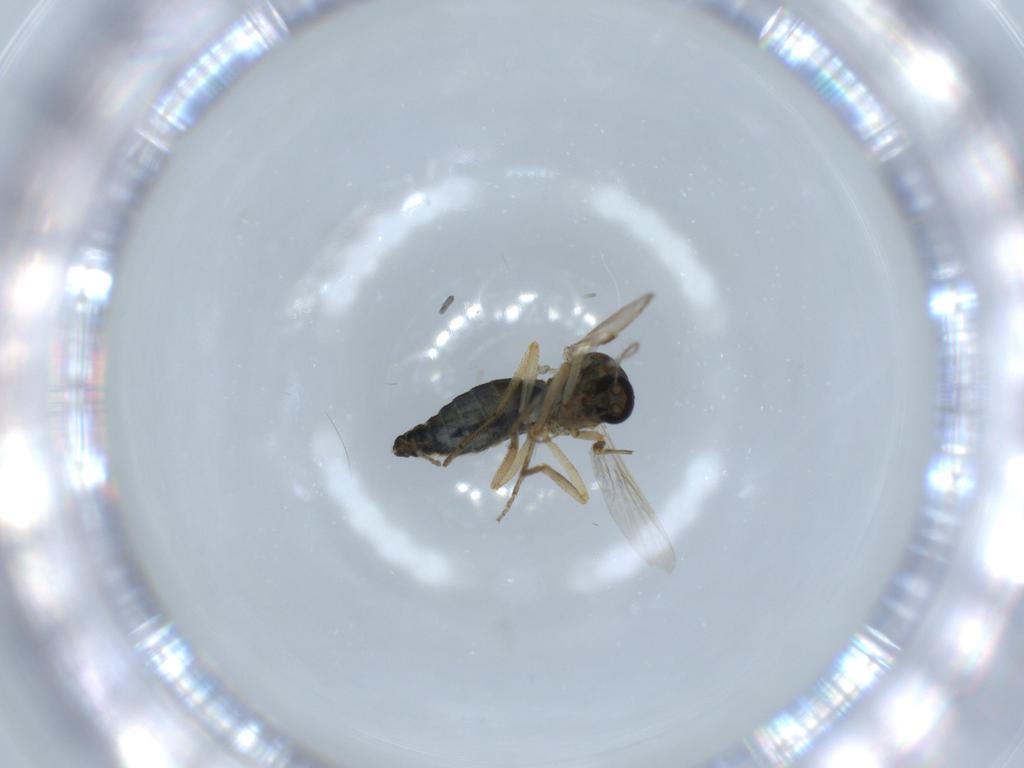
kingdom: Animalia
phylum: Arthropoda
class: Insecta
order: Diptera
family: Ceratopogonidae
